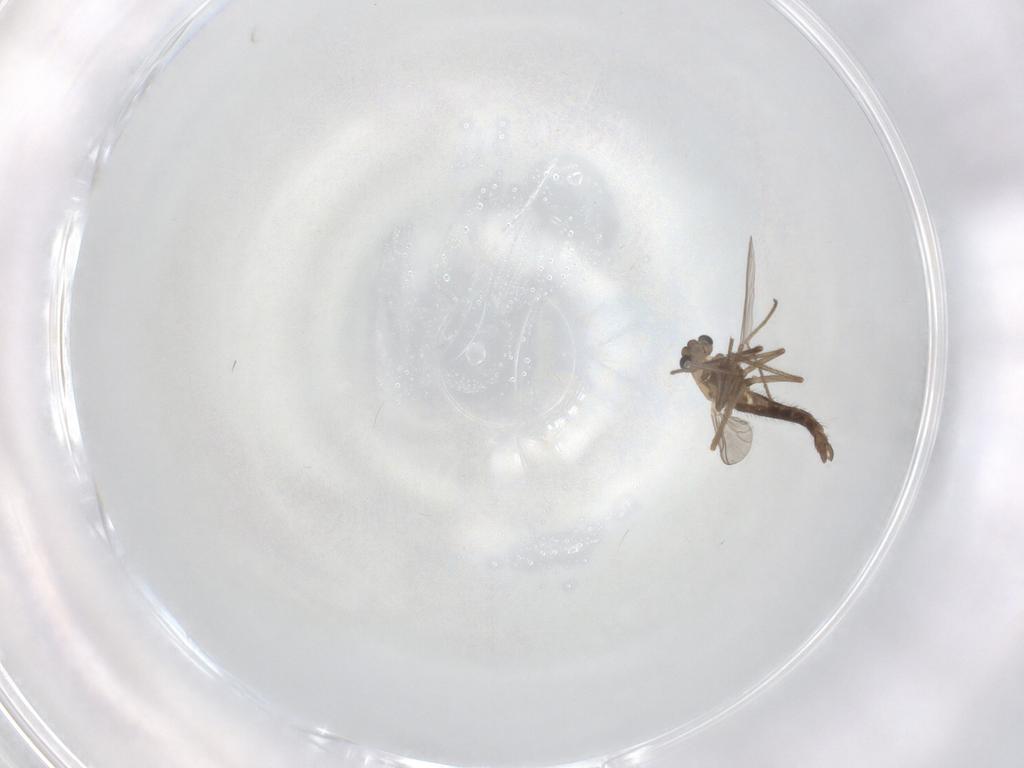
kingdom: Animalia
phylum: Arthropoda
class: Insecta
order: Diptera
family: Chironomidae
